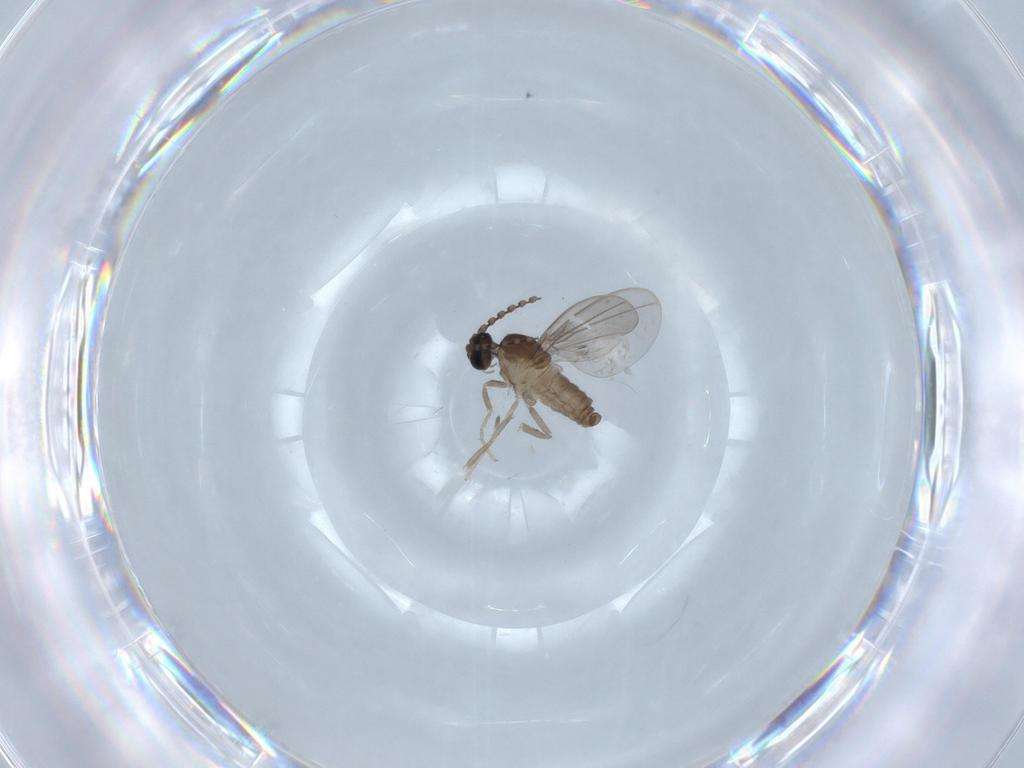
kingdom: Animalia
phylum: Arthropoda
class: Insecta
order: Diptera
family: Cecidomyiidae
